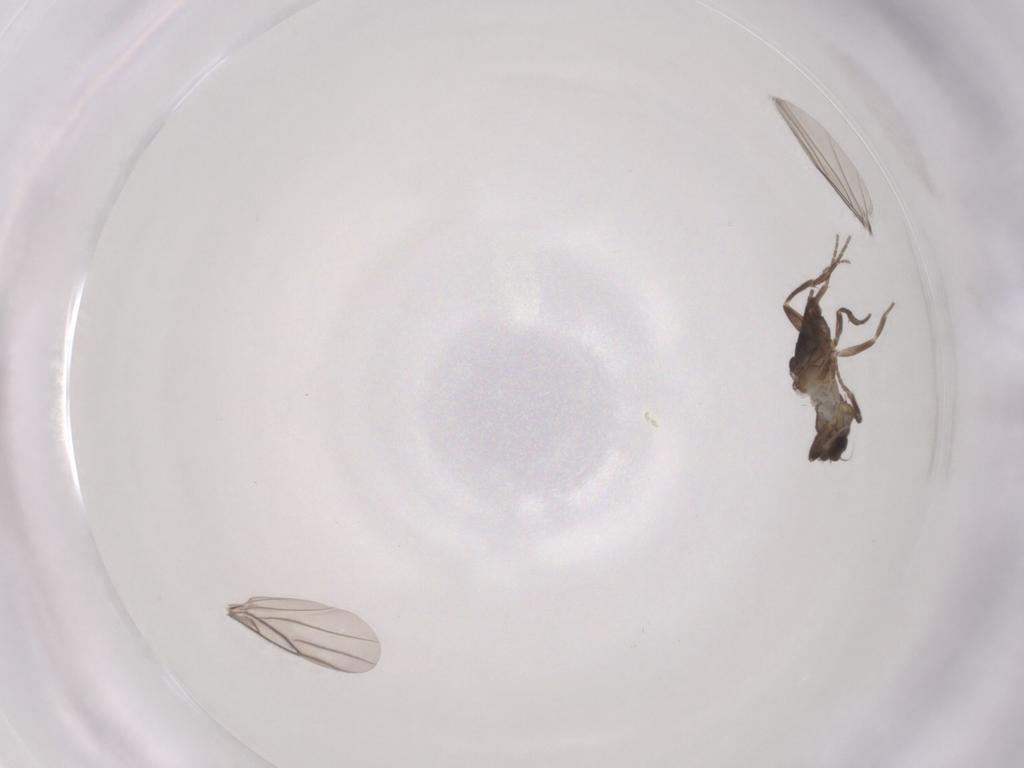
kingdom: Animalia
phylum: Arthropoda
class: Insecta
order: Diptera
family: Cecidomyiidae
